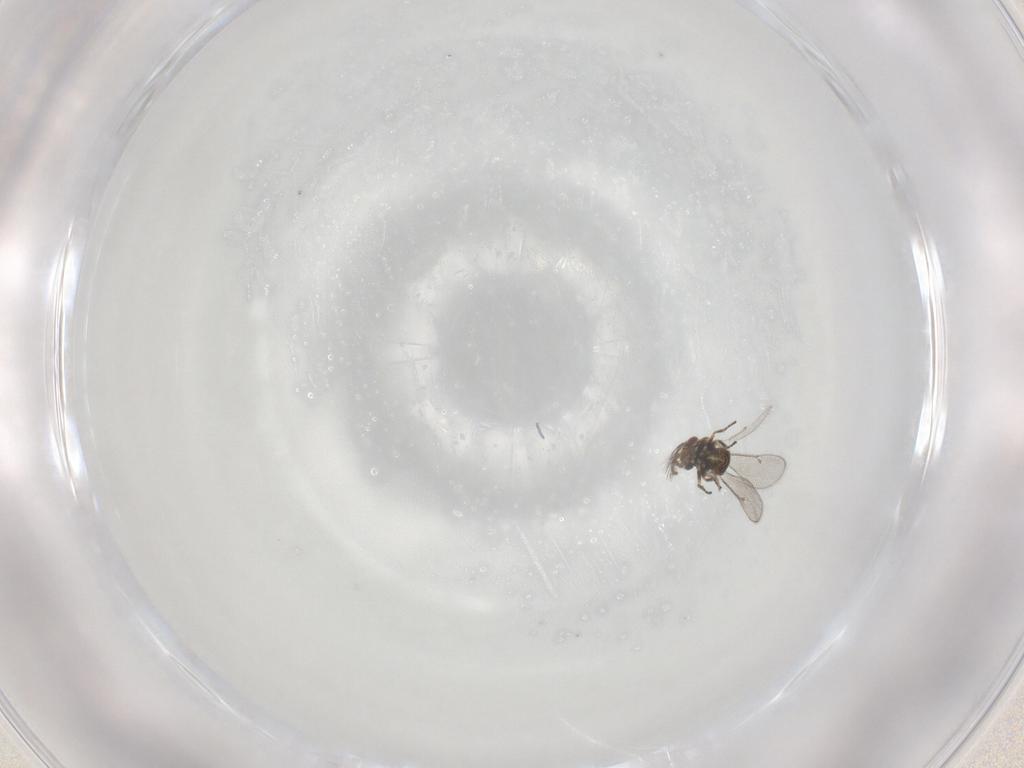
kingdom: Animalia
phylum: Arthropoda
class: Insecta
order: Hymenoptera
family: Eulophidae
